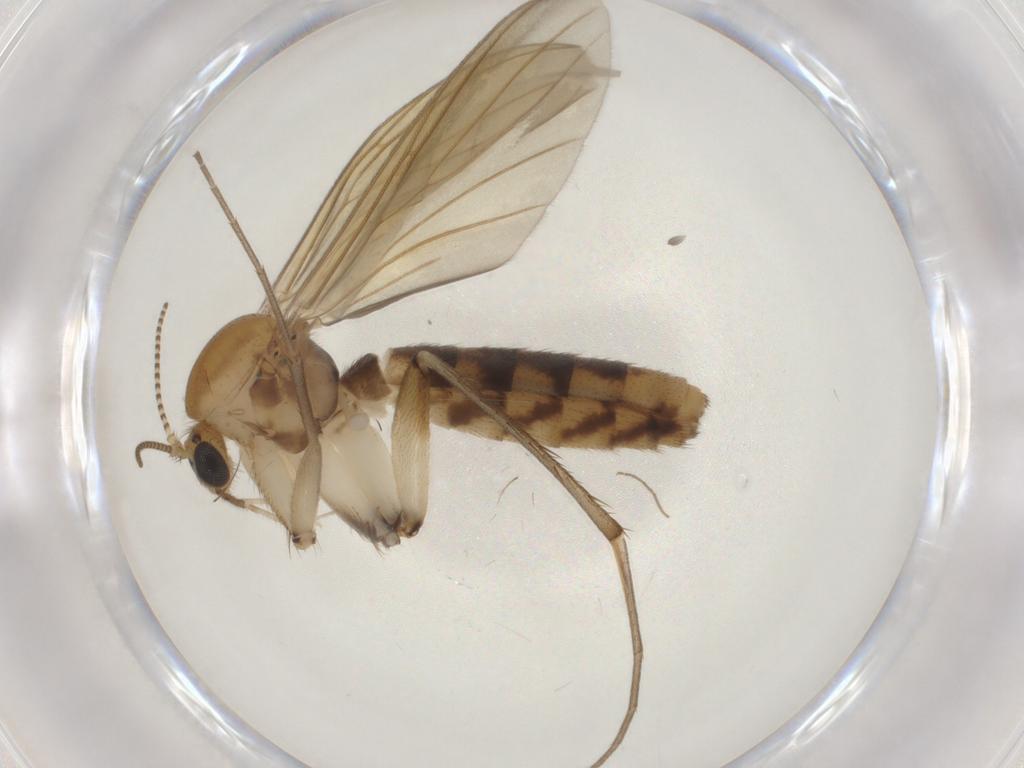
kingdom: Animalia
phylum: Arthropoda
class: Insecta
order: Diptera
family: Mycetophilidae
